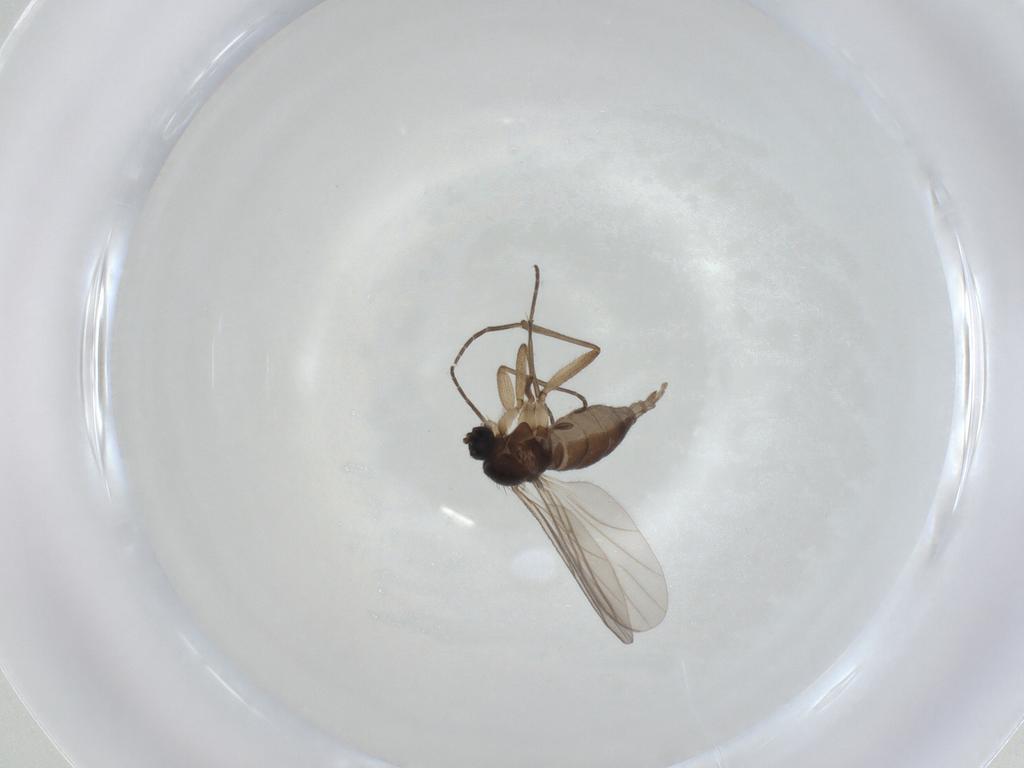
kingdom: Animalia
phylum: Arthropoda
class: Insecta
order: Diptera
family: Sciaridae
